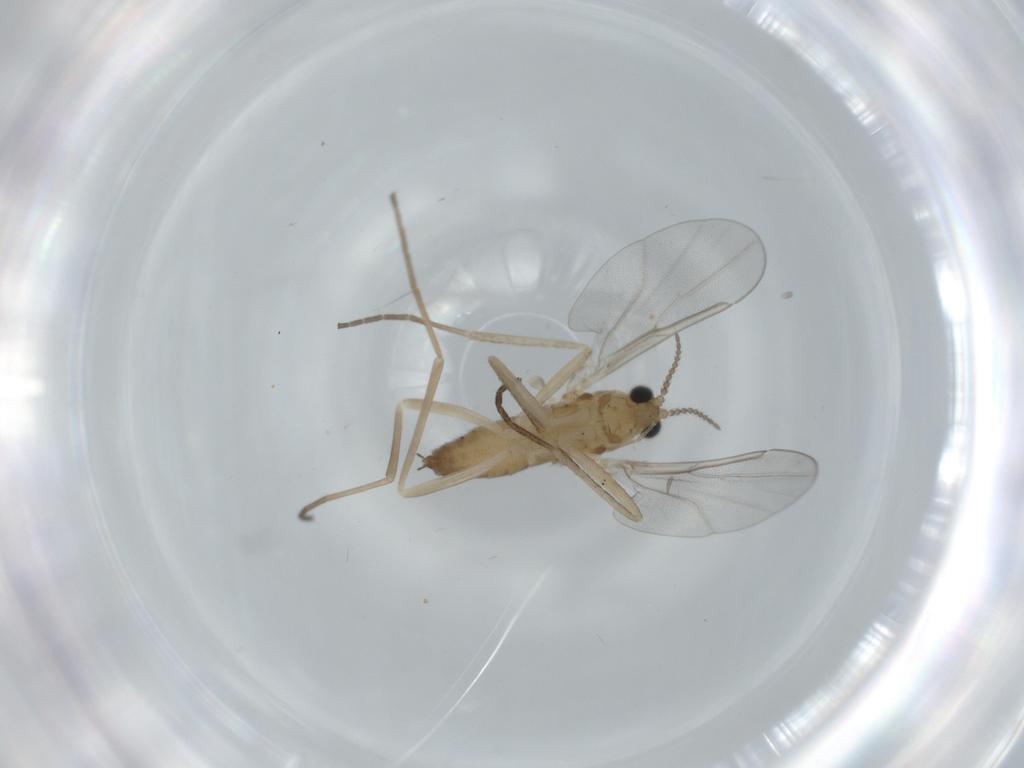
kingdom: Animalia
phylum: Arthropoda
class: Insecta
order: Diptera
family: Cecidomyiidae
